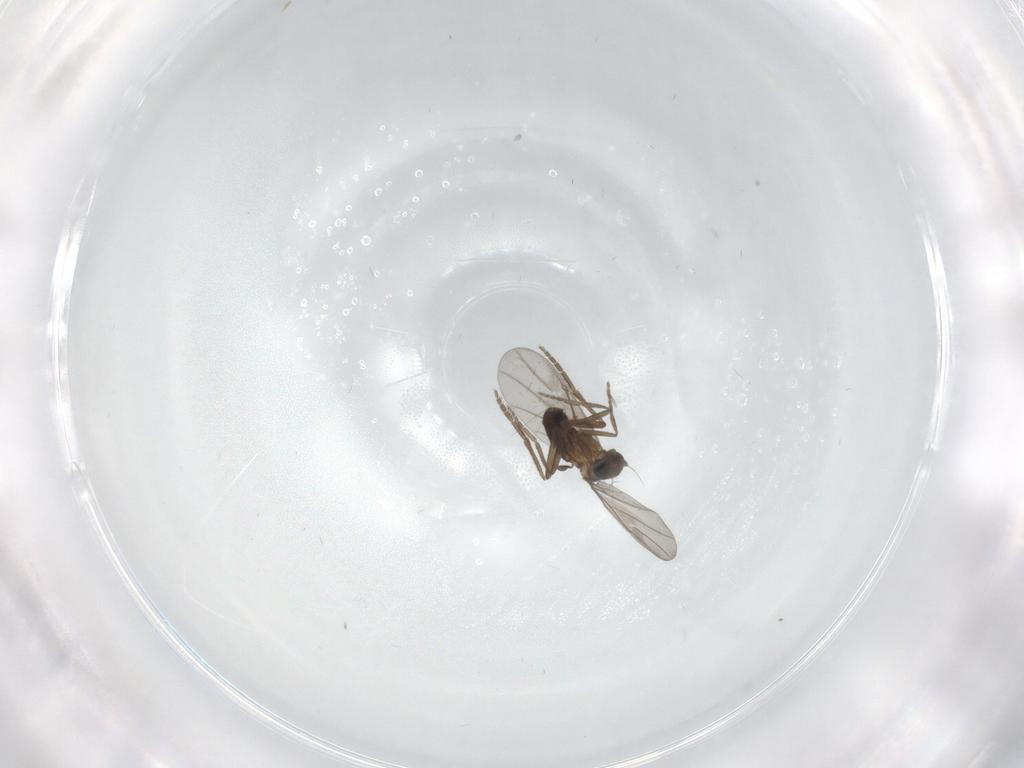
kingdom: Animalia
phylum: Arthropoda
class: Insecta
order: Diptera
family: Cecidomyiidae
